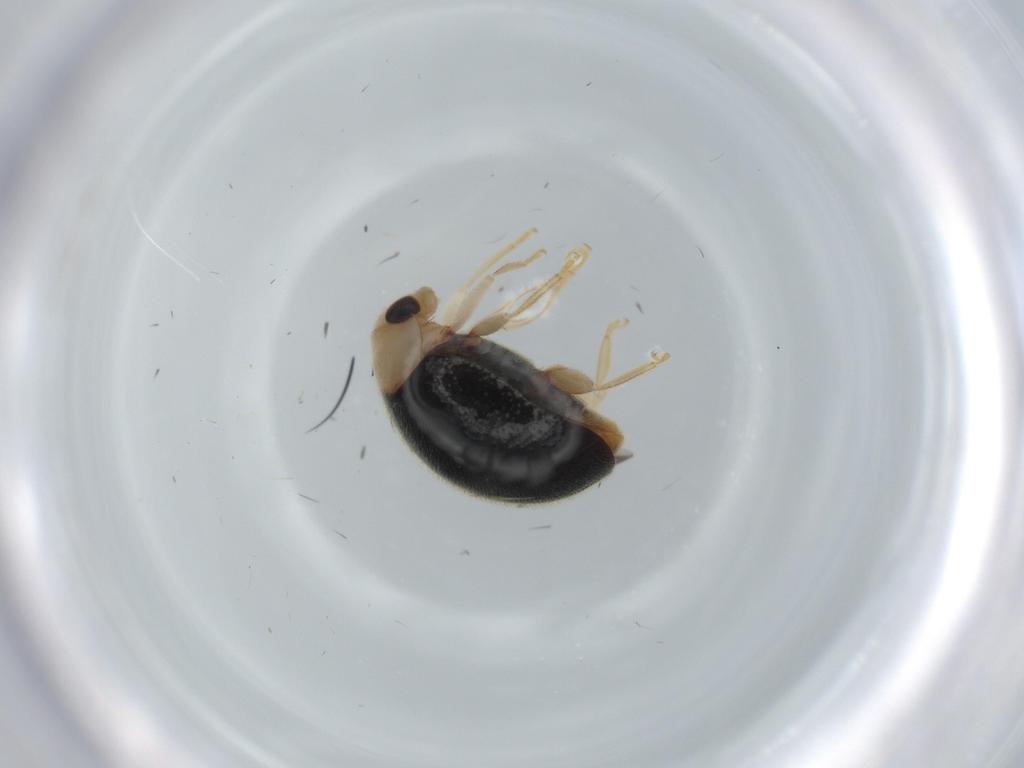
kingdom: Animalia
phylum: Arthropoda
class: Insecta
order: Coleoptera
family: Coccinellidae
